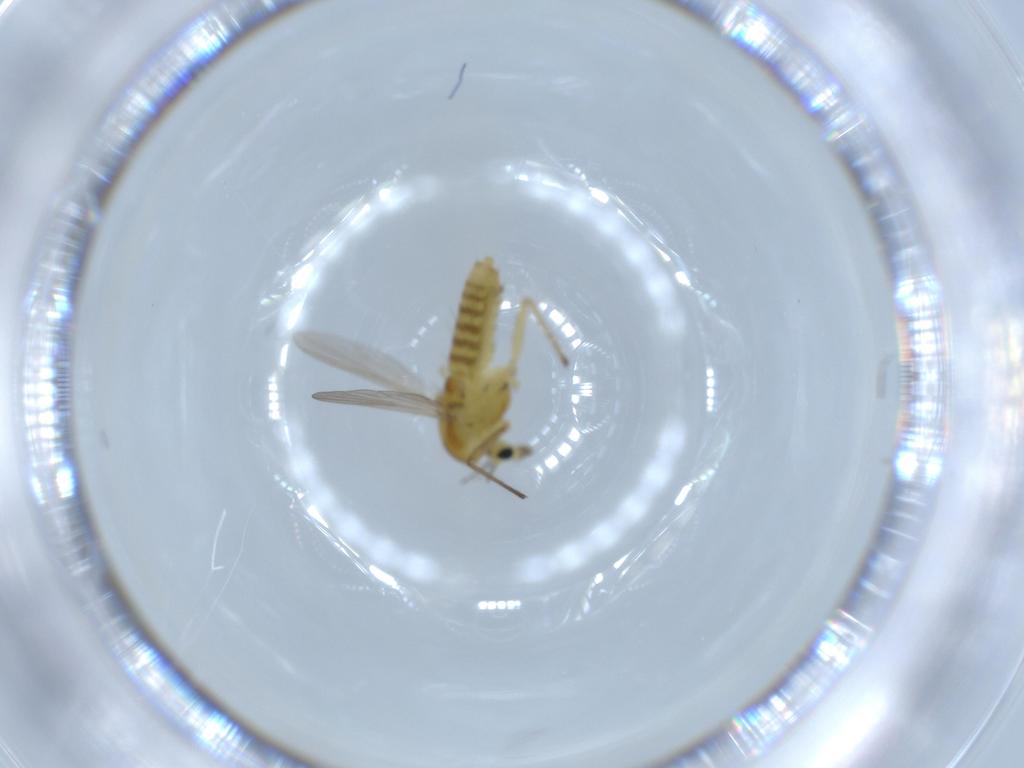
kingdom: Animalia
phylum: Arthropoda
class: Insecta
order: Diptera
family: Chironomidae
